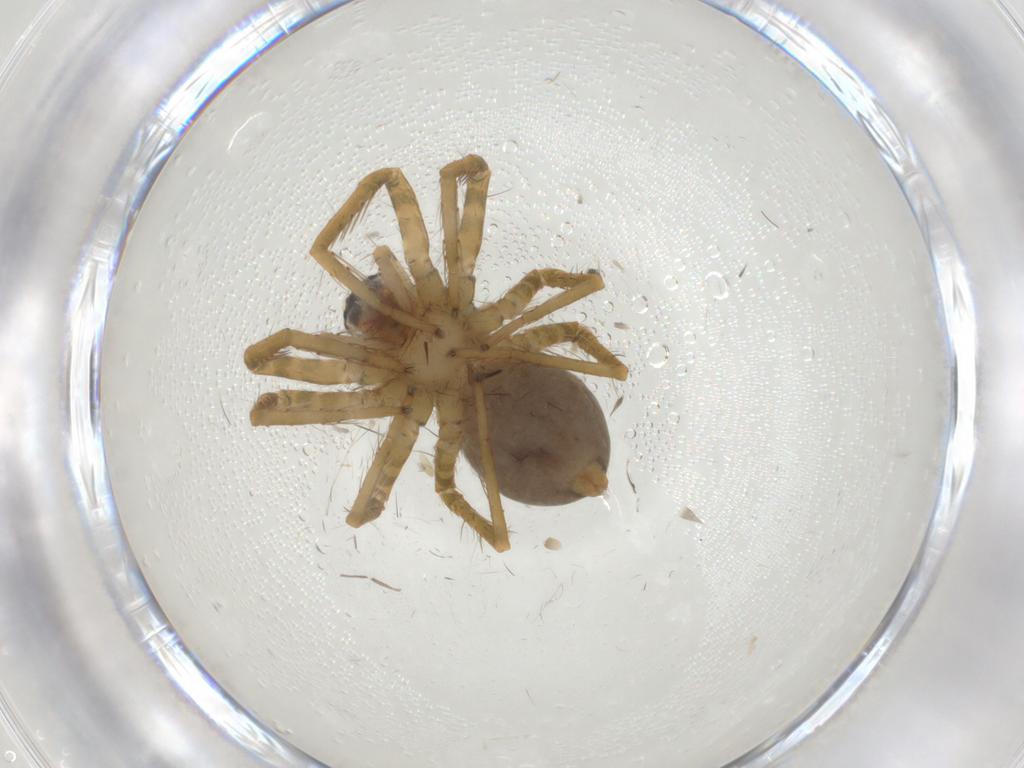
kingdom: Animalia
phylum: Arthropoda
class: Arachnida
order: Araneae
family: Ctenidae
